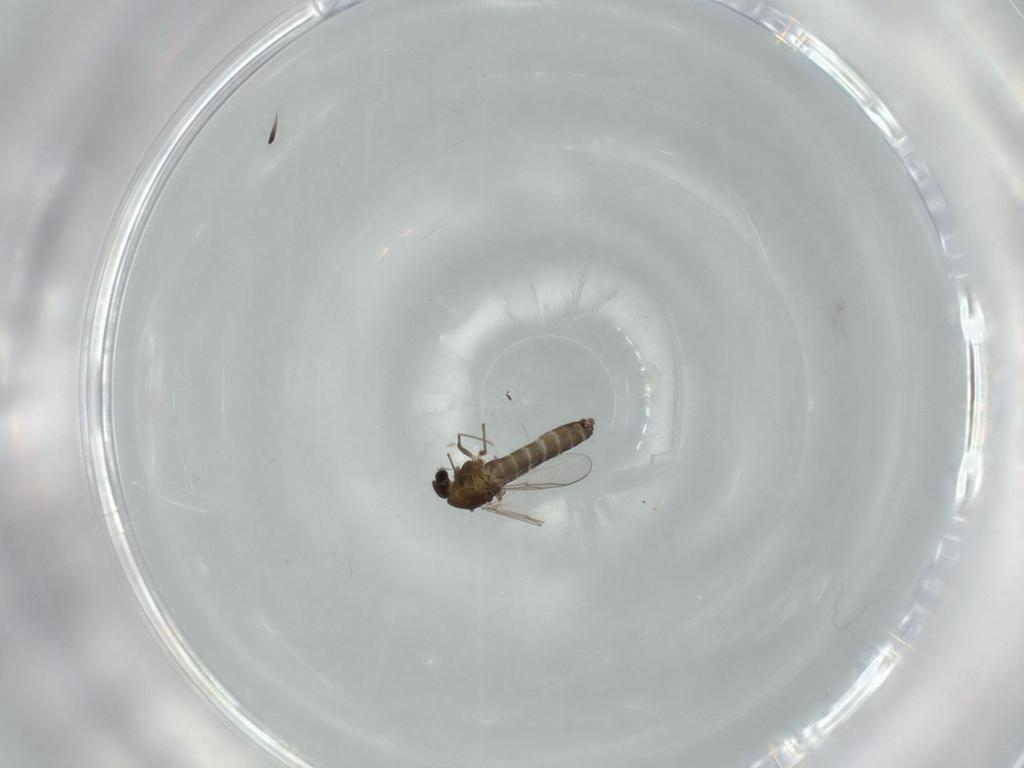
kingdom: Animalia
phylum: Arthropoda
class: Insecta
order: Diptera
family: Chironomidae
